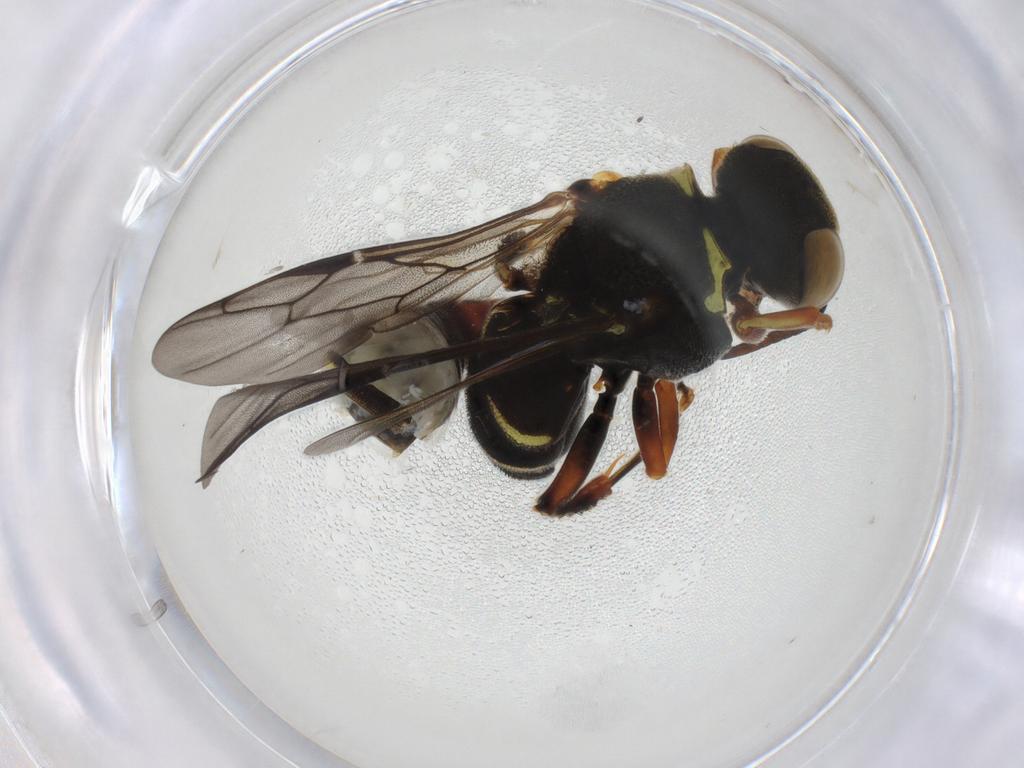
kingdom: Animalia
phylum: Arthropoda
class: Insecta
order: Hymenoptera
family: Crabronidae
